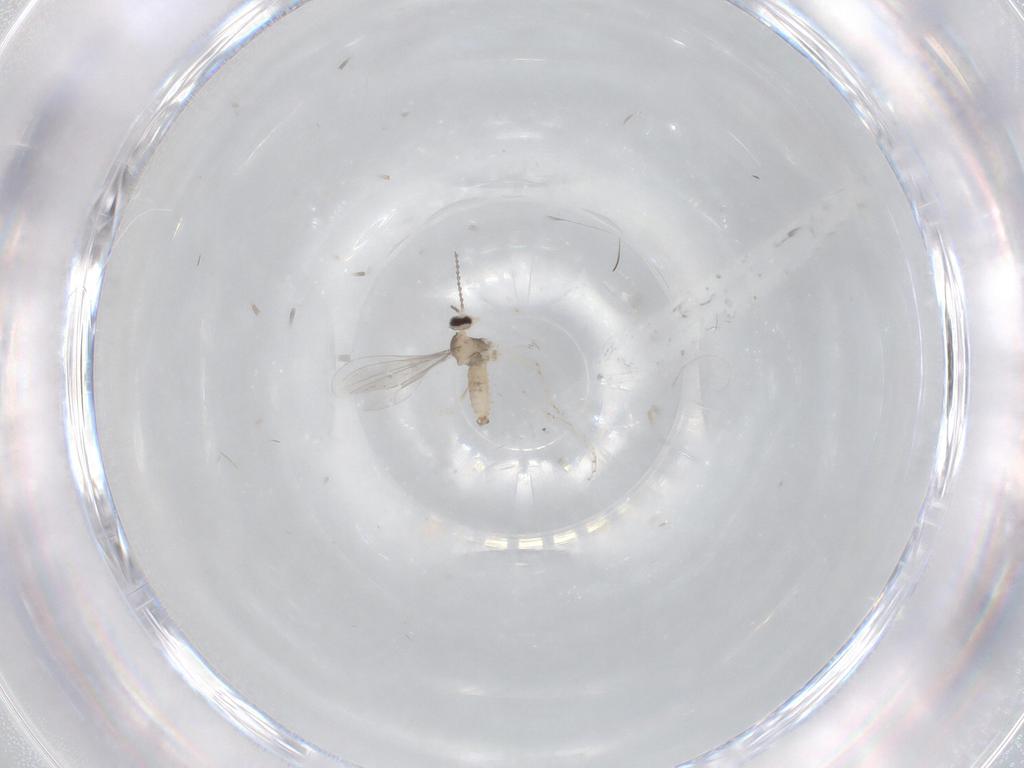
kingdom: Animalia
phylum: Arthropoda
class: Insecta
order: Diptera
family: Cecidomyiidae
